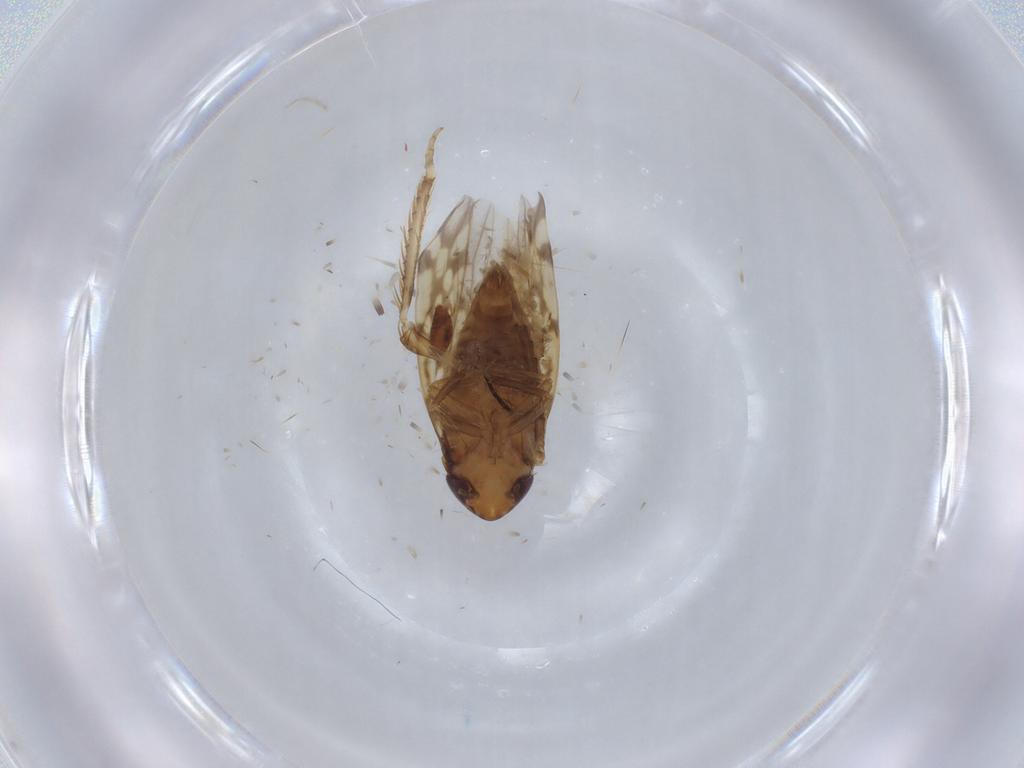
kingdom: Animalia
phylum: Arthropoda
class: Insecta
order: Hemiptera
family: Cicadellidae
